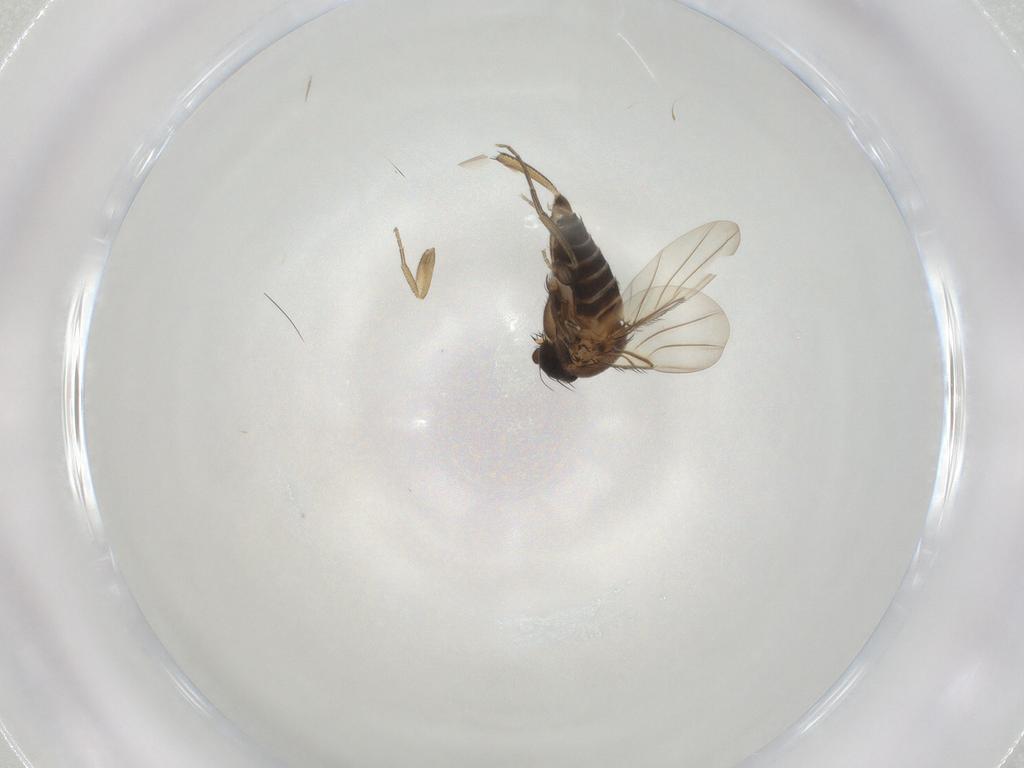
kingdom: Animalia
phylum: Arthropoda
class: Insecta
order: Diptera
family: Phoridae
